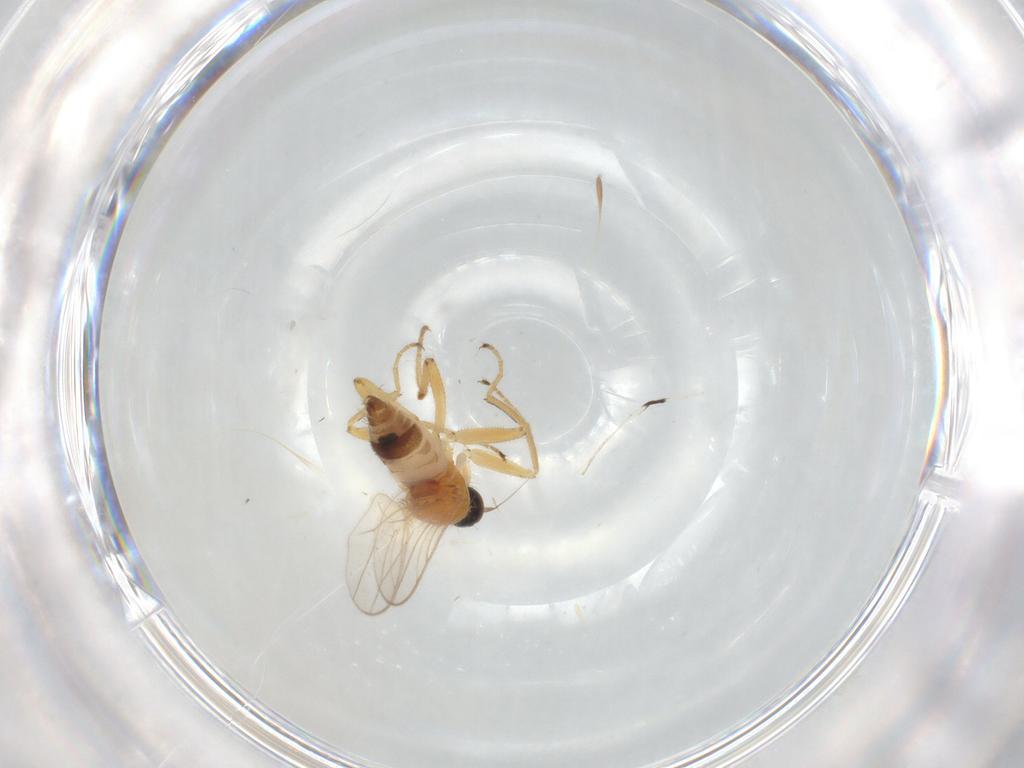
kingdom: Animalia
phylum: Arthropoda
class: Insecta
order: Diptera
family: Hybotidae
